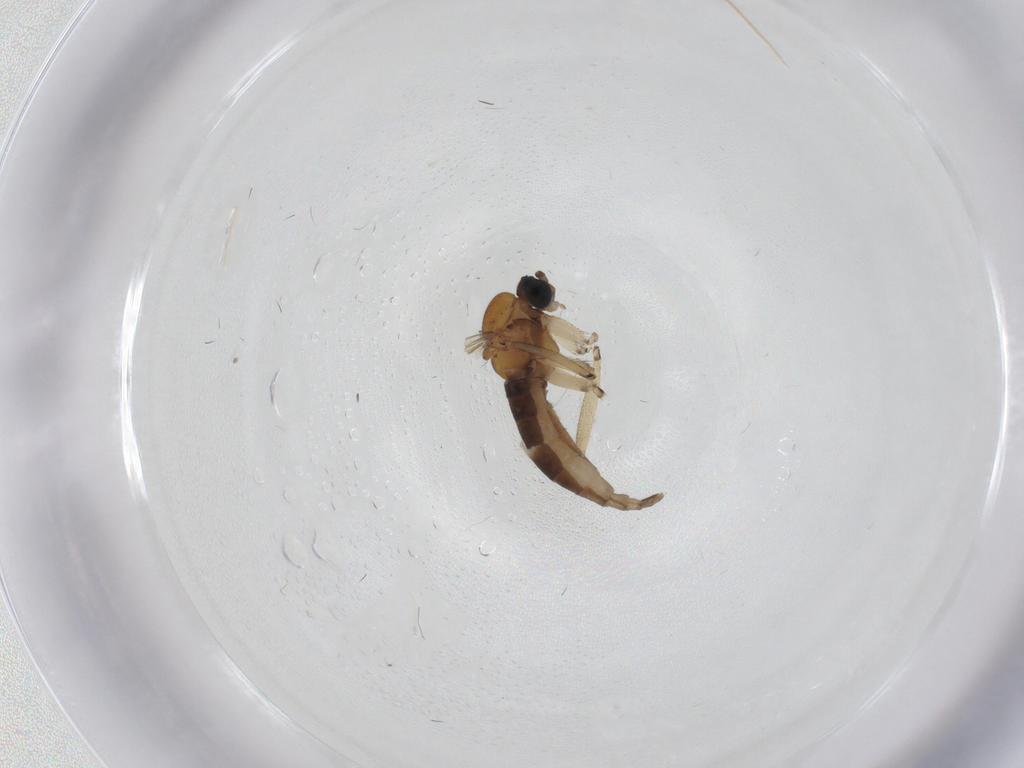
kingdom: Animalia
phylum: Arthropoda
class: Insecta
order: Diptera
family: Sciaridae
